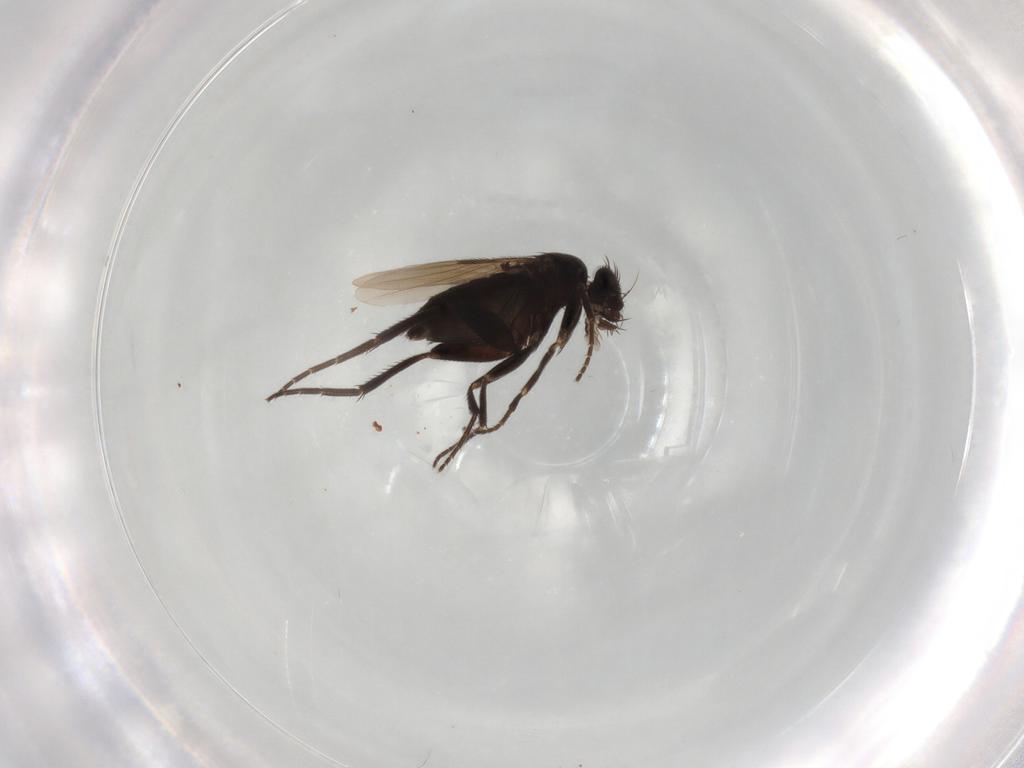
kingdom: Animalia
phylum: Arthropoda
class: Insecta
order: Diptera
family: Phoridae
